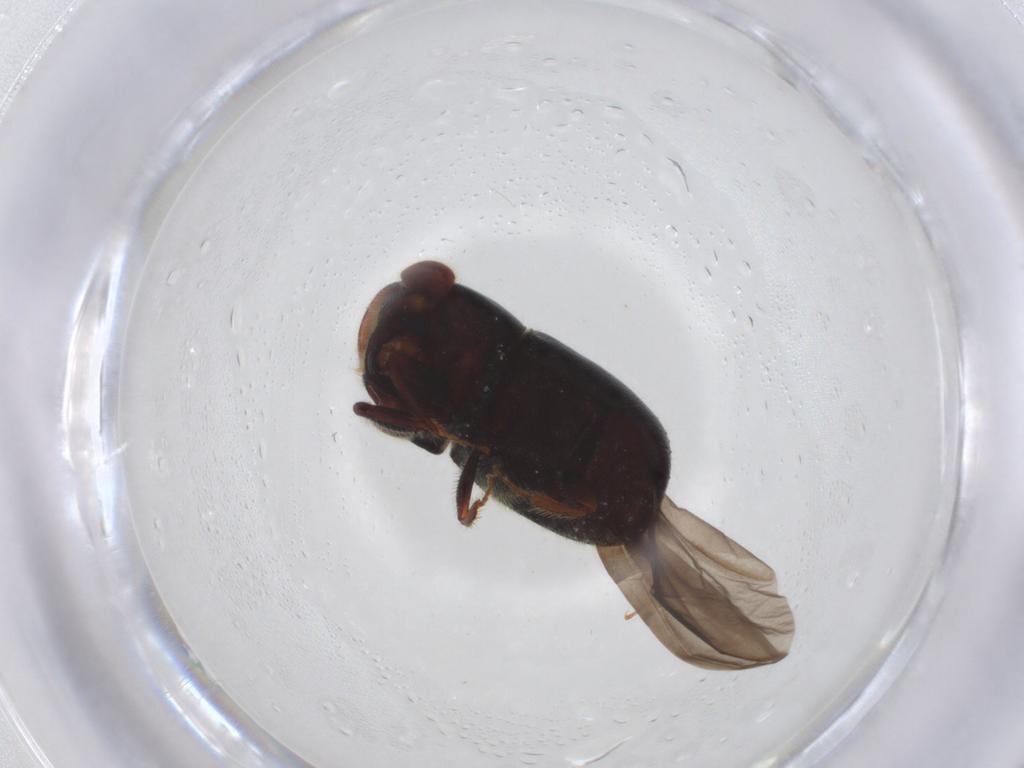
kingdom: Animalia
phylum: Arthropoda
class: Insecta
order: Coleoptera
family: Curculionidae
